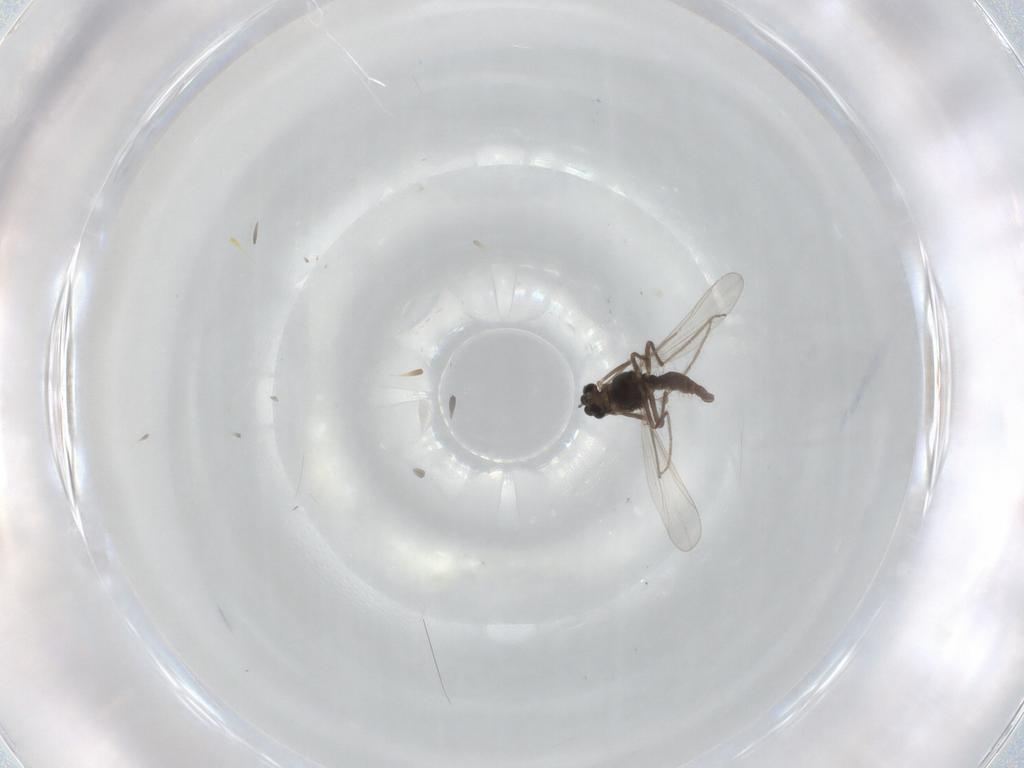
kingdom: Animalia
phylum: Arthropoda
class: Insecta
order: Diptera
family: Chironomidae
